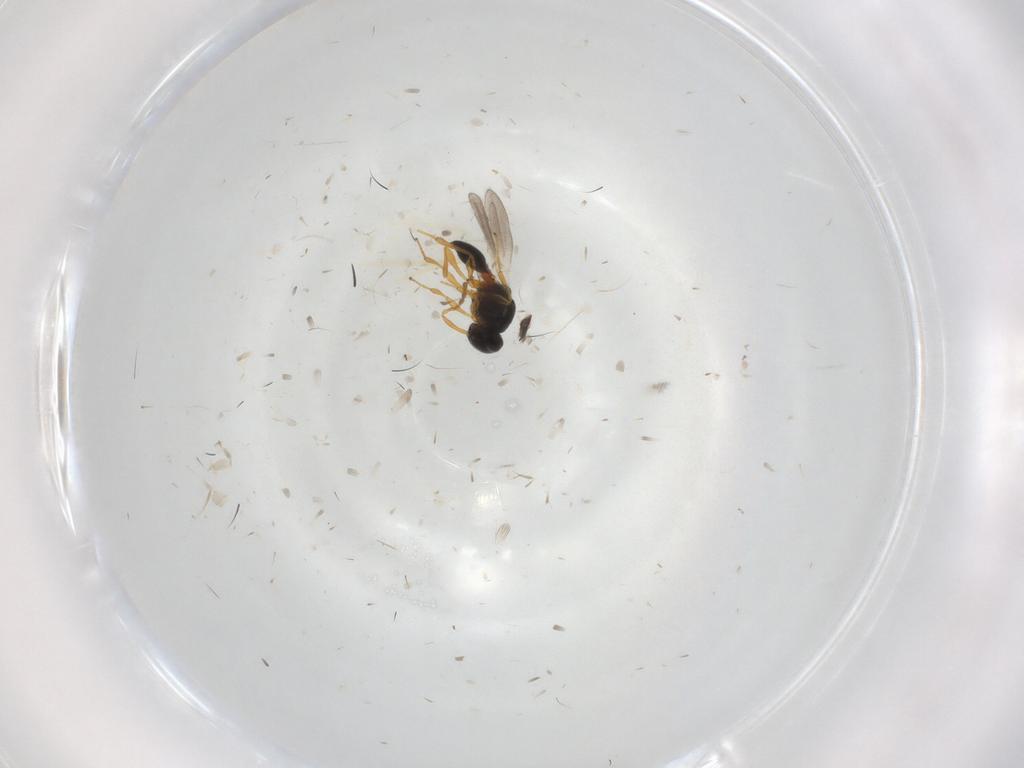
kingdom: Animalia
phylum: Arthropoda
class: Insecta
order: Hymenoptera
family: Platygastridae
